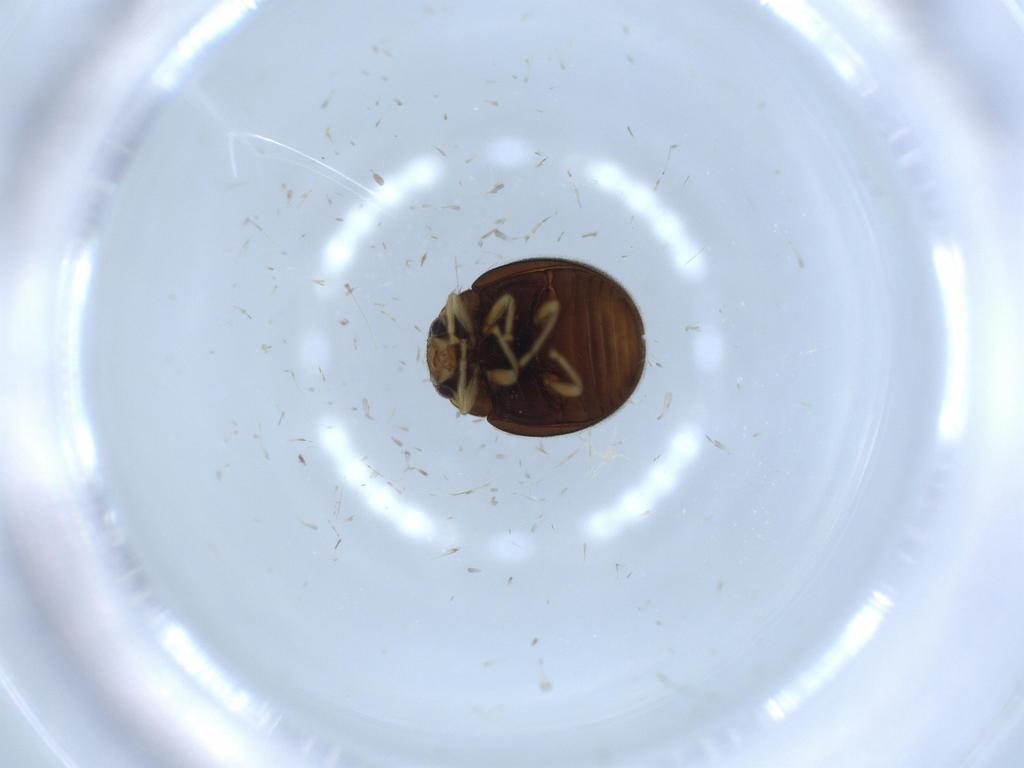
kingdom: Animalia
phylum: Arthropoda
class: Insecta
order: Coleoptera
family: Coccinellidae
